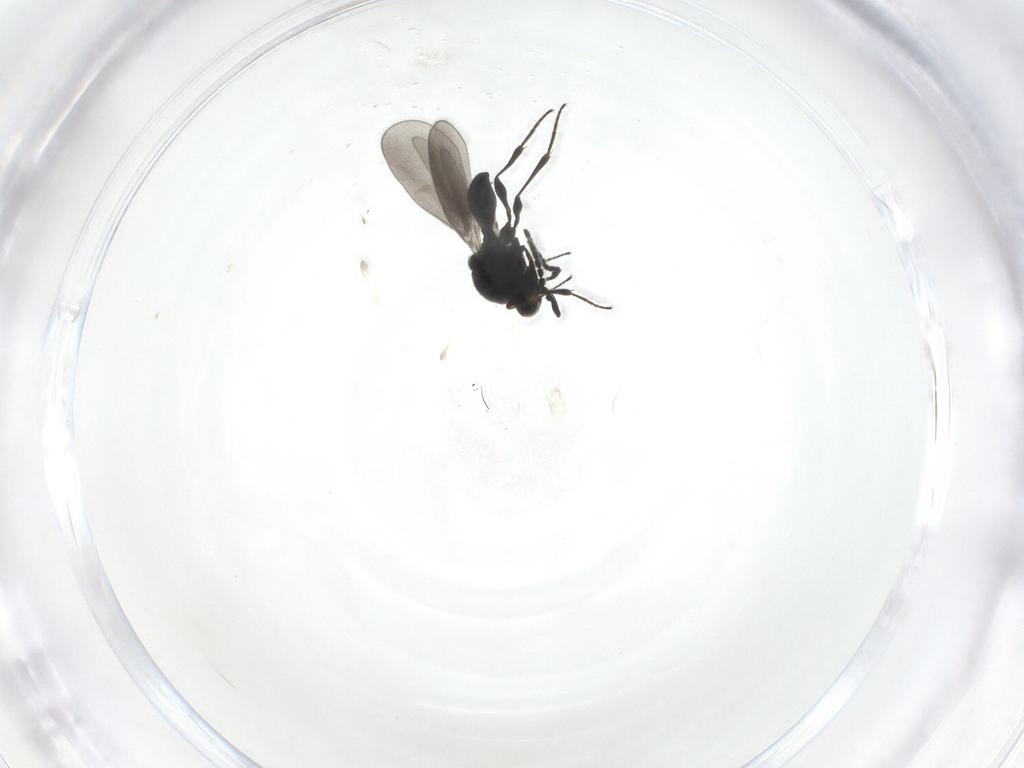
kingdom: Animalia
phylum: Arthropoda
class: Insecta
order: Hymenoptera
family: Platygastridae
